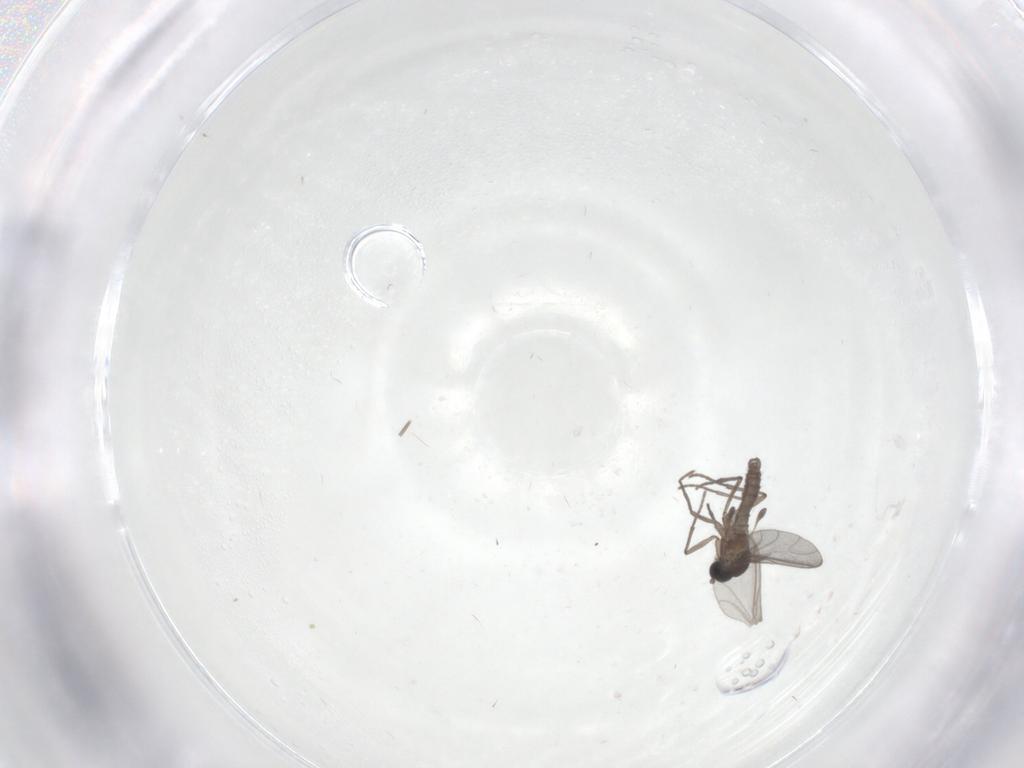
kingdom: Animalia
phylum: Arthropoda
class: Insecta
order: Diptera
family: Sciaridae
